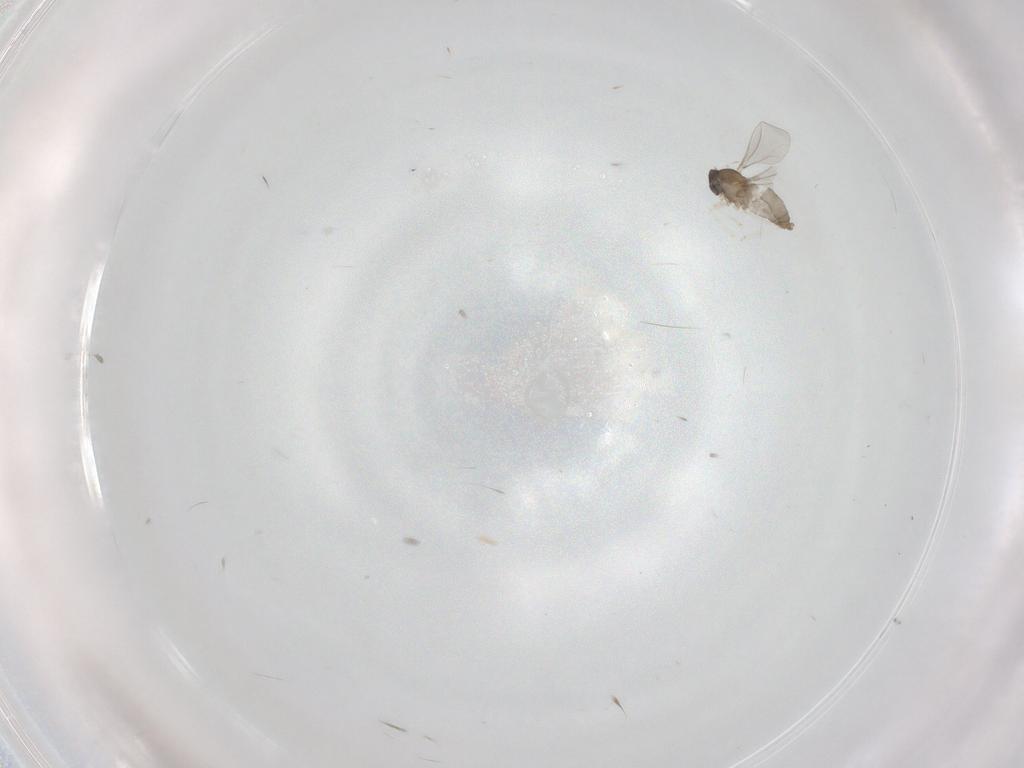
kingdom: Animalia
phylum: Arthropoda
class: Insecta
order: Diptera
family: Cecidomyiidae
